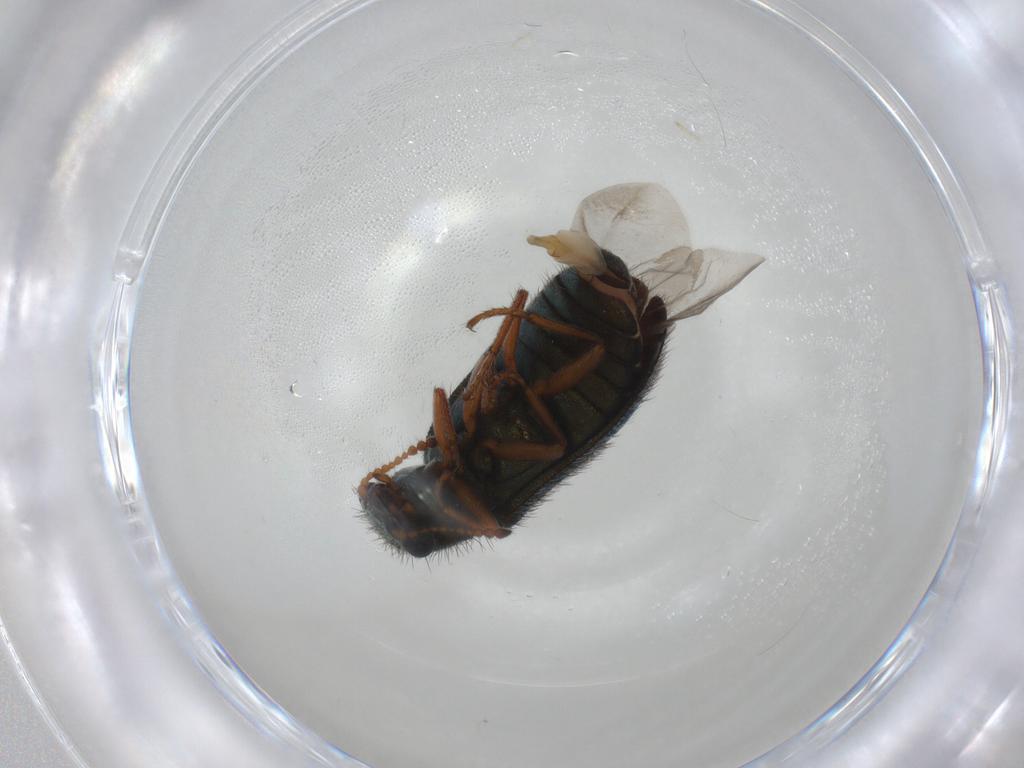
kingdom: Animalia
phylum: Arthropoda
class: Insecta
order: Coleoptera
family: Melyridae
